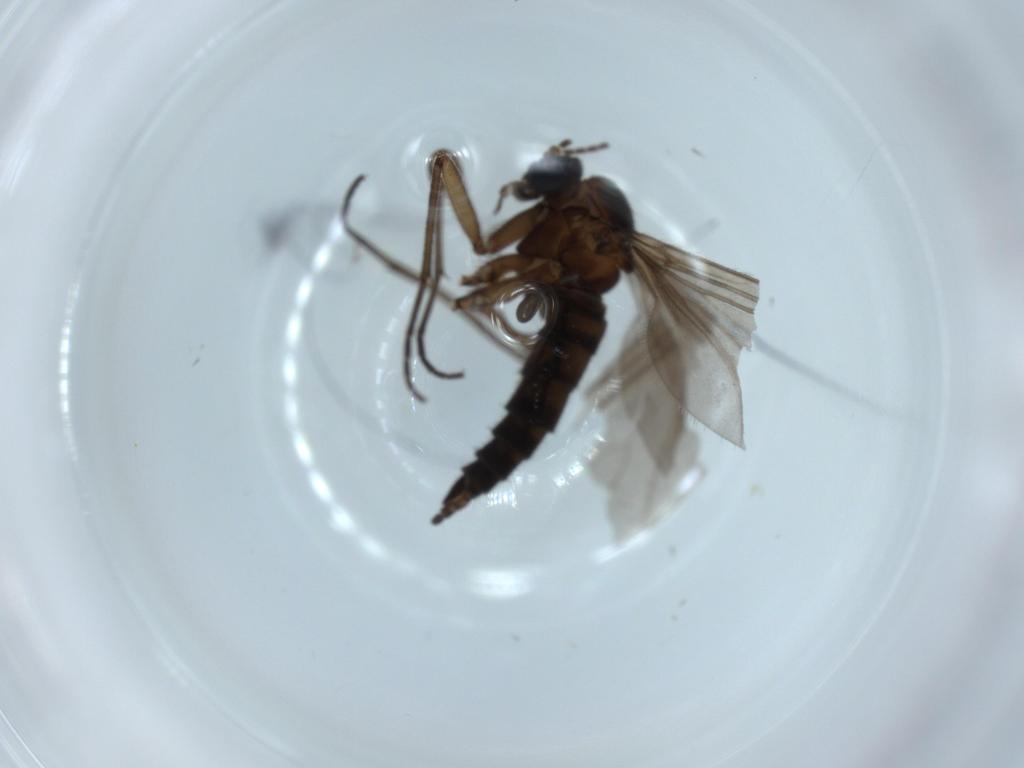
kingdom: Animalia
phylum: Arthropoda
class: Insecta
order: Diptera
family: Sciaridae
